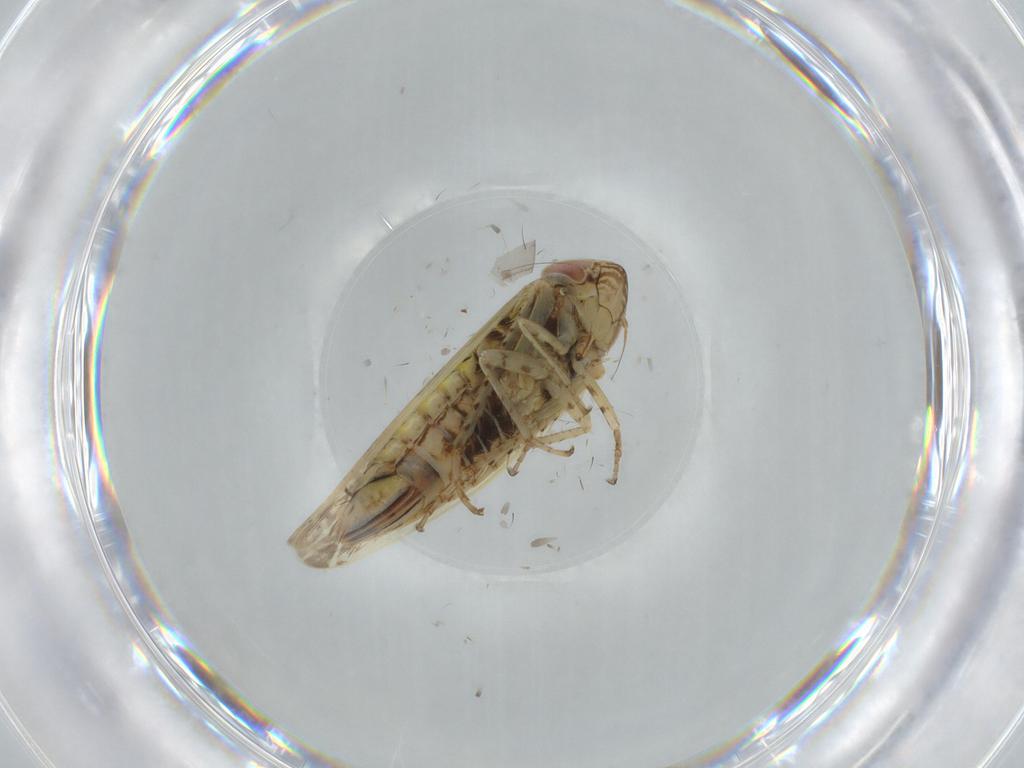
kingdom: Animalia
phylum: Arthropoda
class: Insecta
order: Hemiptera
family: Cicadellidae
